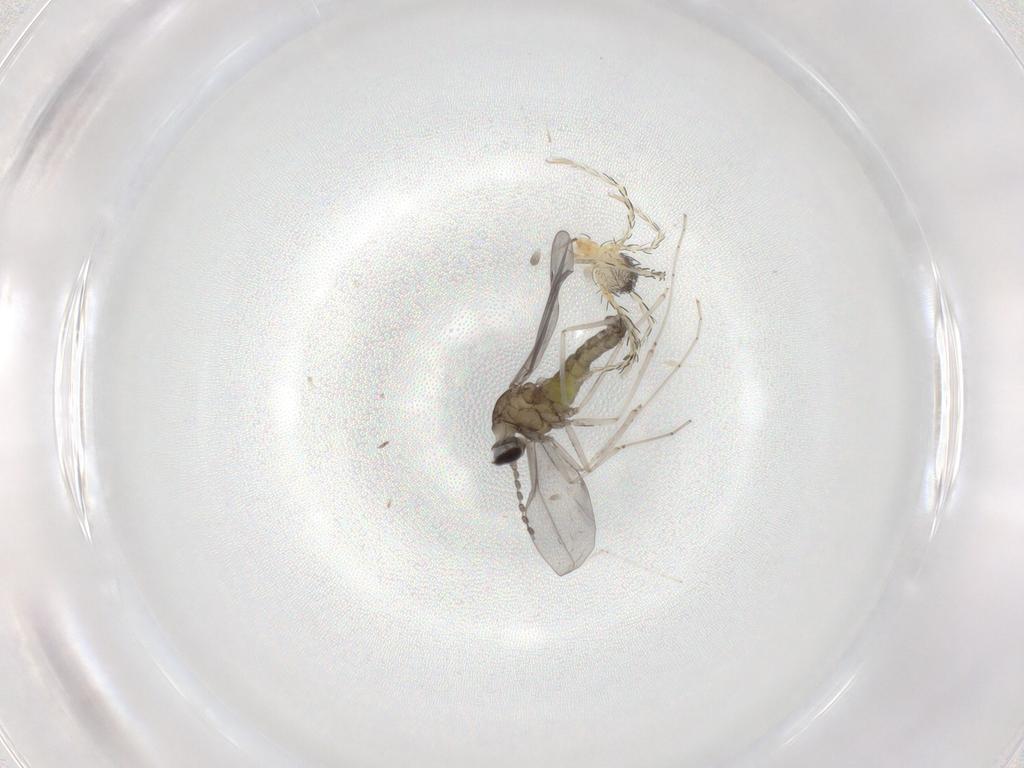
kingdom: Animalia
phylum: Arthropoda
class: Insecta
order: Diptera
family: Cecidomyiidae
